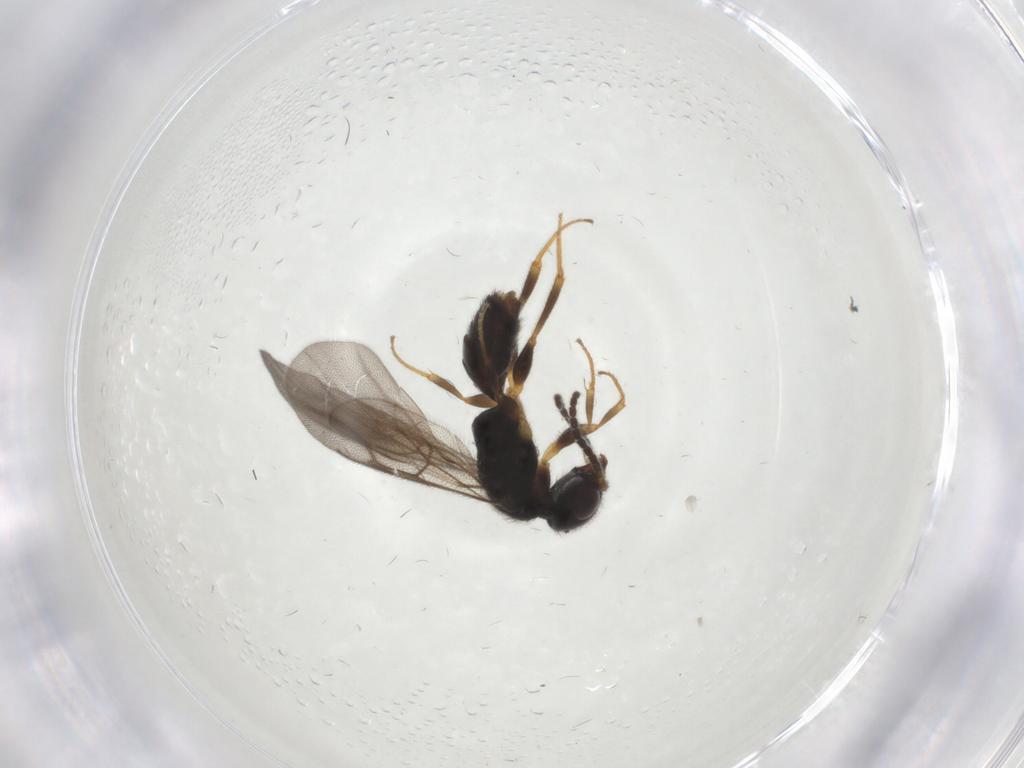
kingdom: Animalia
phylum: Arthropoda
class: Insecta
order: Hymenoptera
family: Bethylidae
